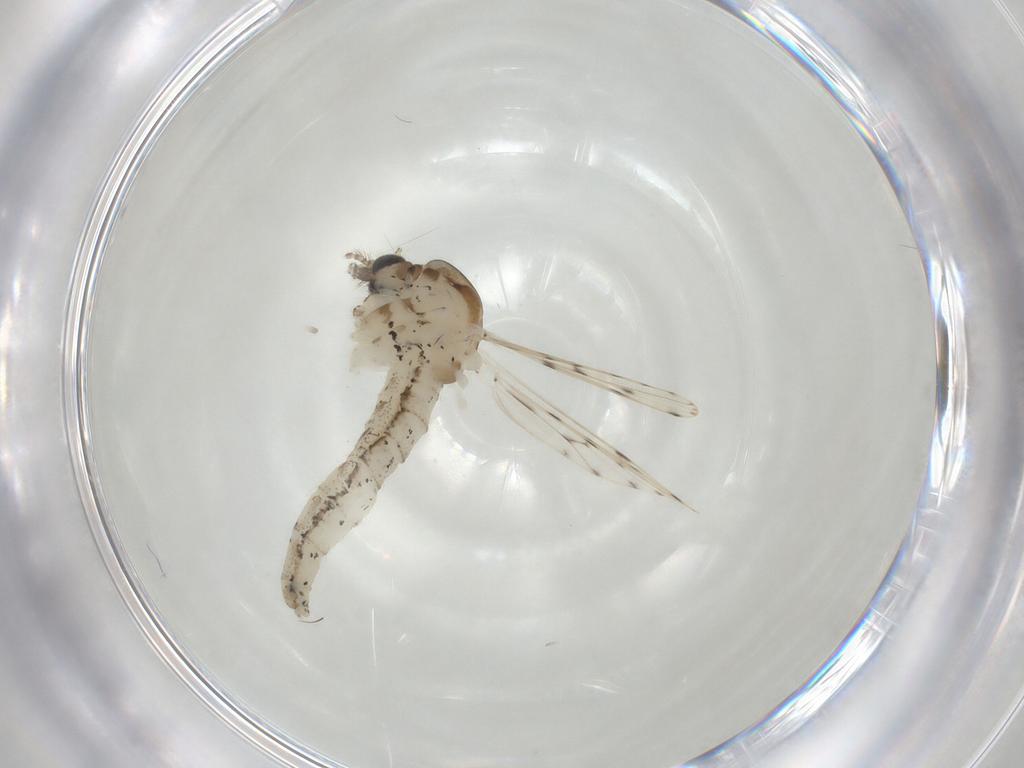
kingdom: Animalia
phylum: Arthropoda
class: Insecta
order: Diptera
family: Chaoboridae
